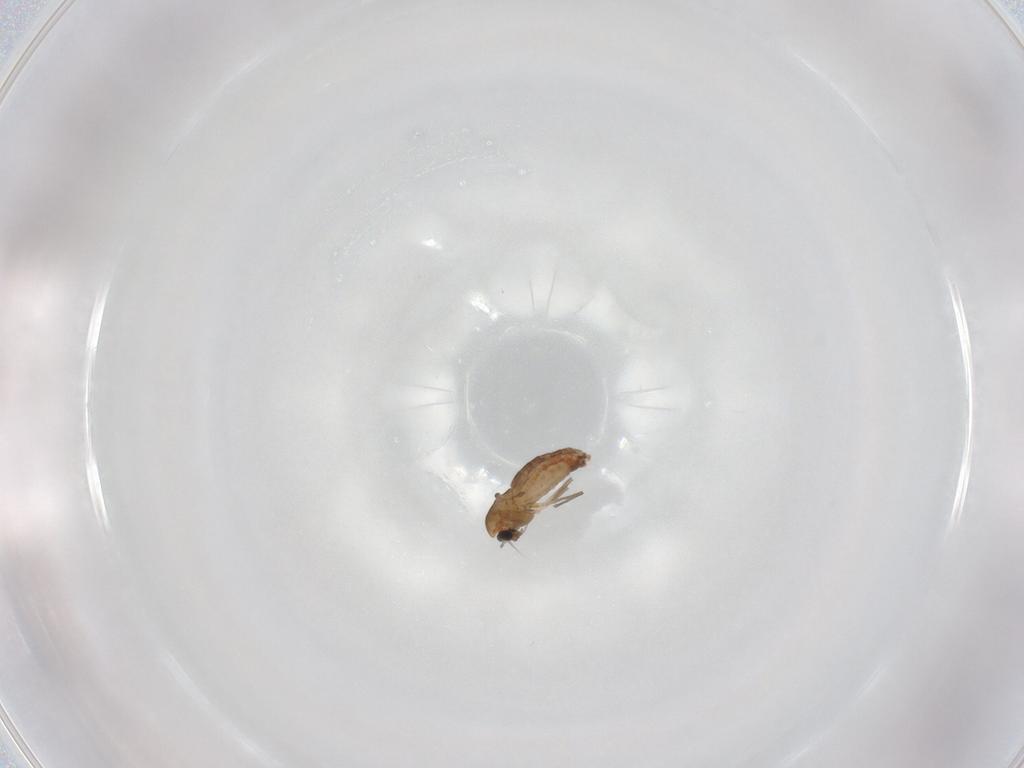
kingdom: Animalia
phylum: Arthropoda
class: Insecta
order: Diptera
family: Chironomidae
